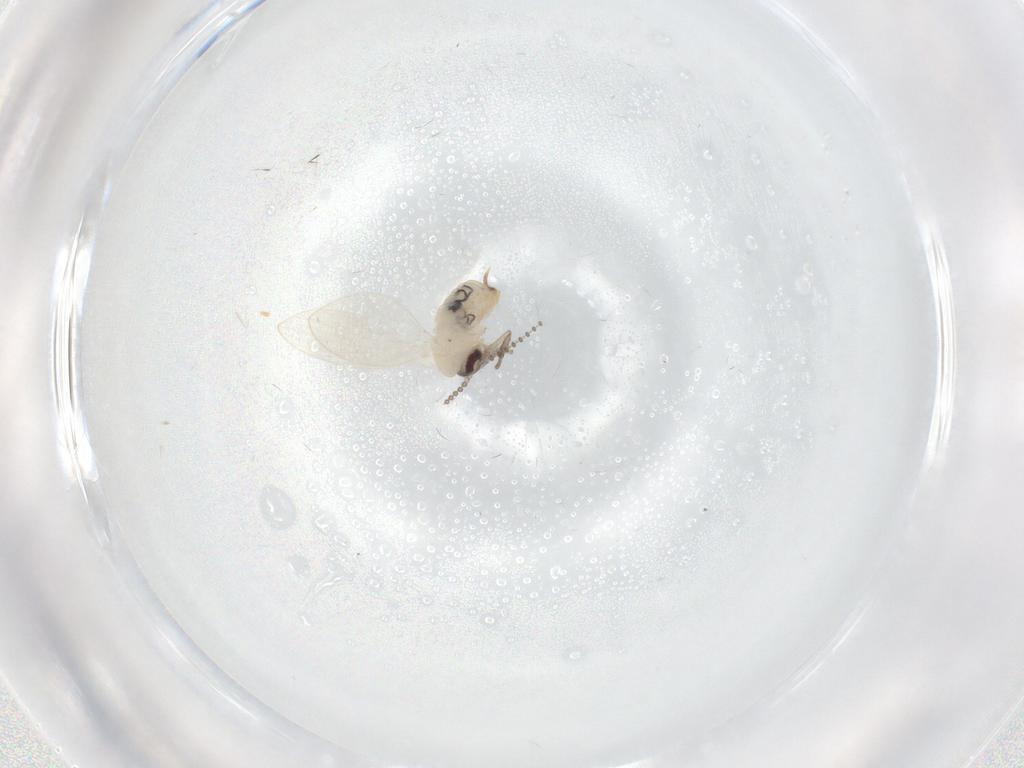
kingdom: Animalia
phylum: Arthropoda
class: Insecta
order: Diptera
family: Psychodidae
